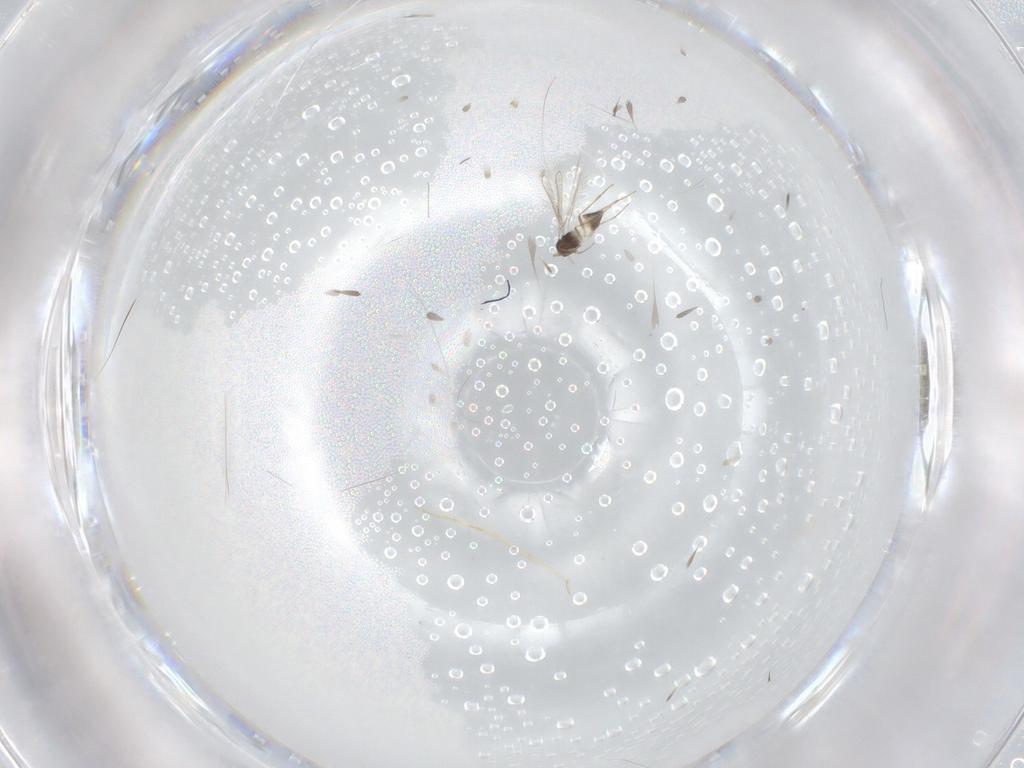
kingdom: Animalia
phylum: Arthropoda
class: Insecta
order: Hymenoptera
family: Mymaridae
